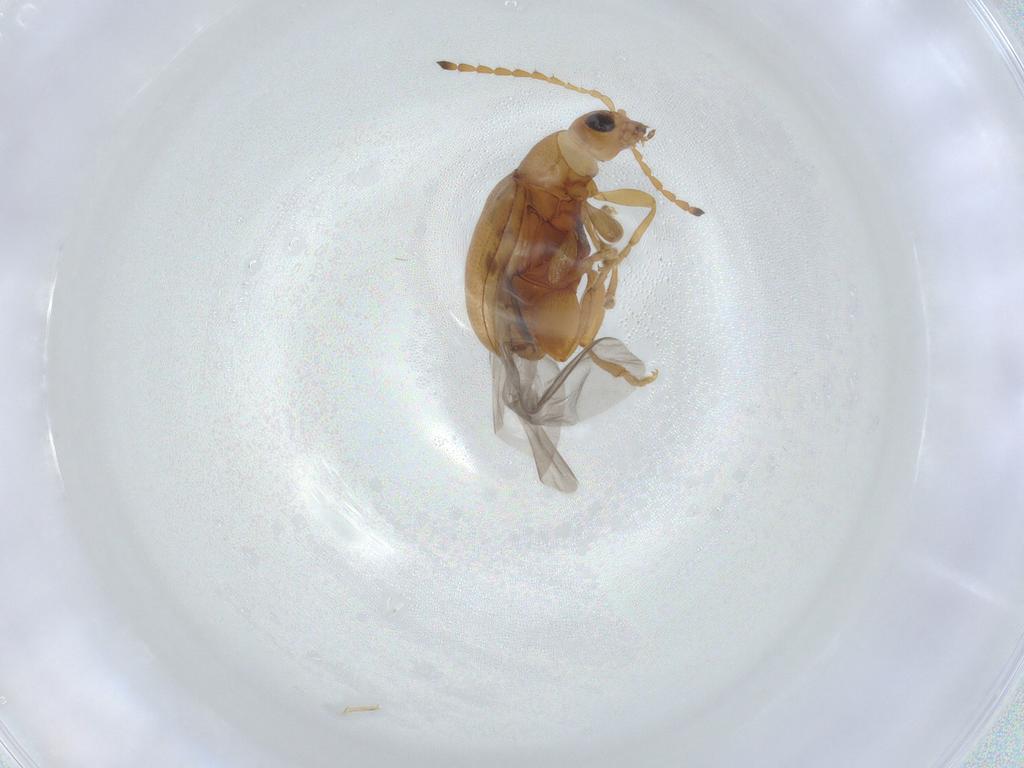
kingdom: Animalia
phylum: Arthropoda
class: Insecta
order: Coleoptera
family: Chrysomelidae
